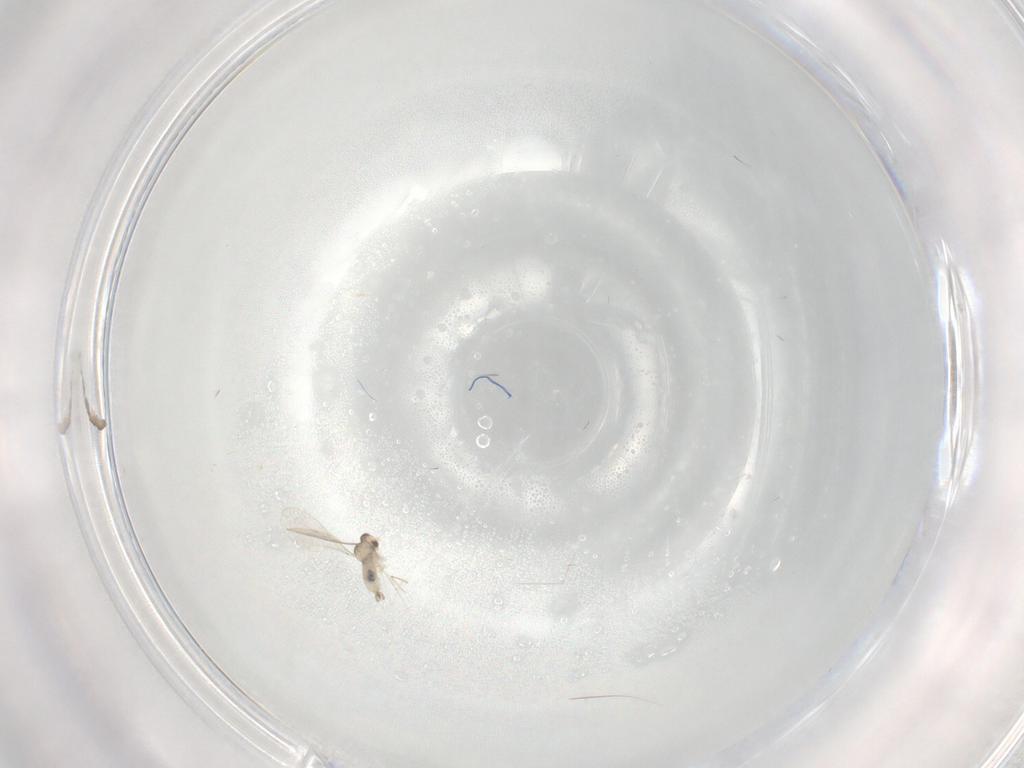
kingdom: Animalia
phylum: Arthropoda
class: Insecta
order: Diptera
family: Cecidomyiidae
